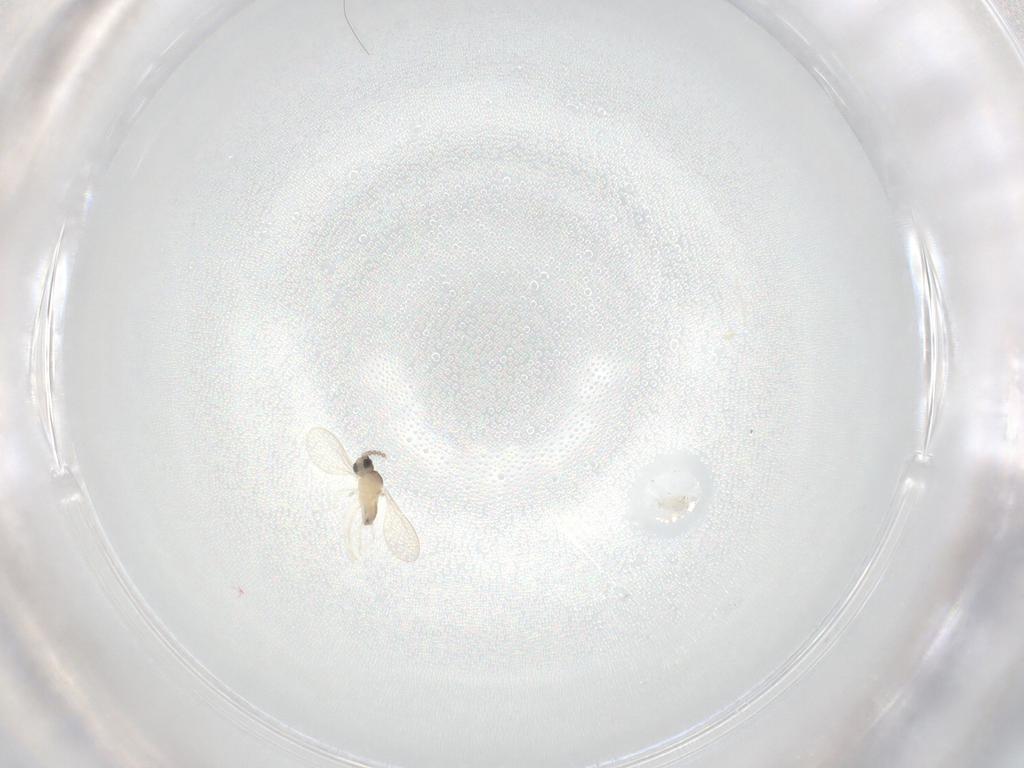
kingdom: Animalia
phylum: Arthropoda
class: Insecta
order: Diptera
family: Cecidomyiidae
